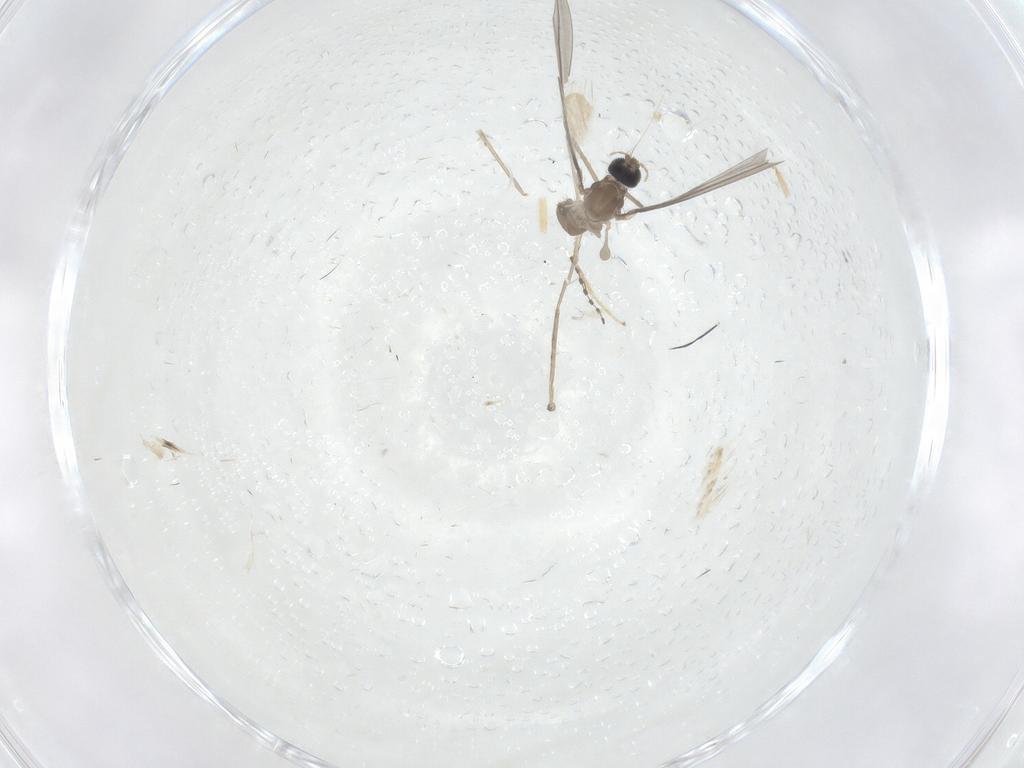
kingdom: Animalia
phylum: Arthropoda
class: Insecta
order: Diptera
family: Cecidomyiidae
